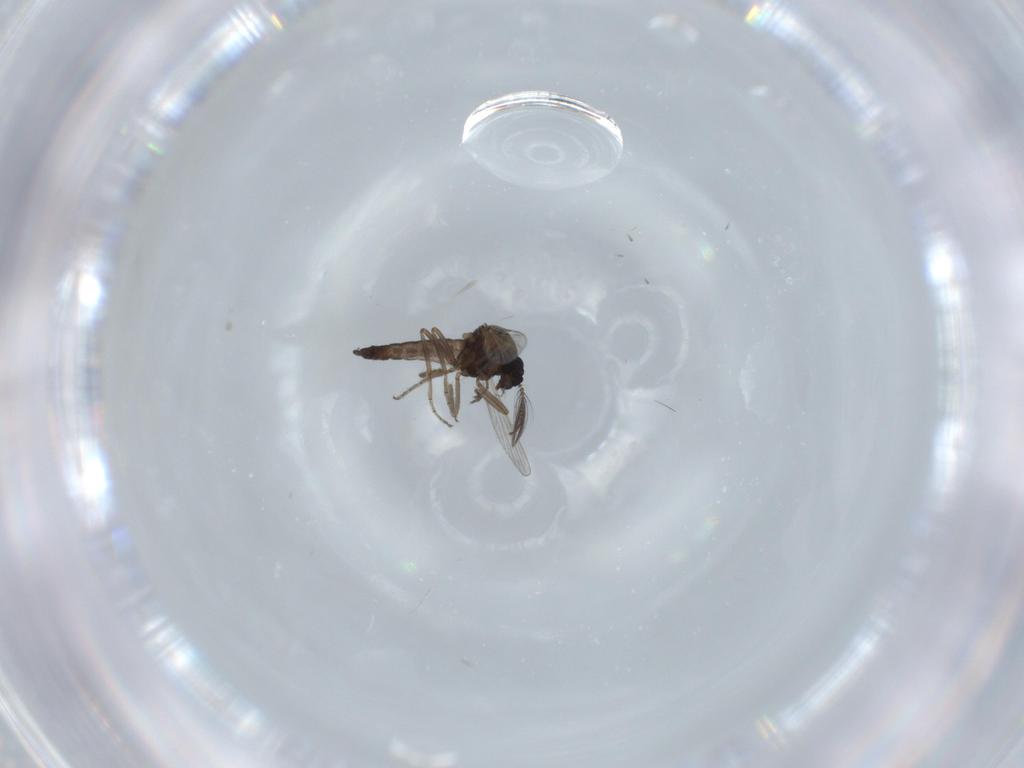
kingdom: Animalia
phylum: Arthropoda
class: Insecta
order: Diptera
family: Ceratopogonidae
